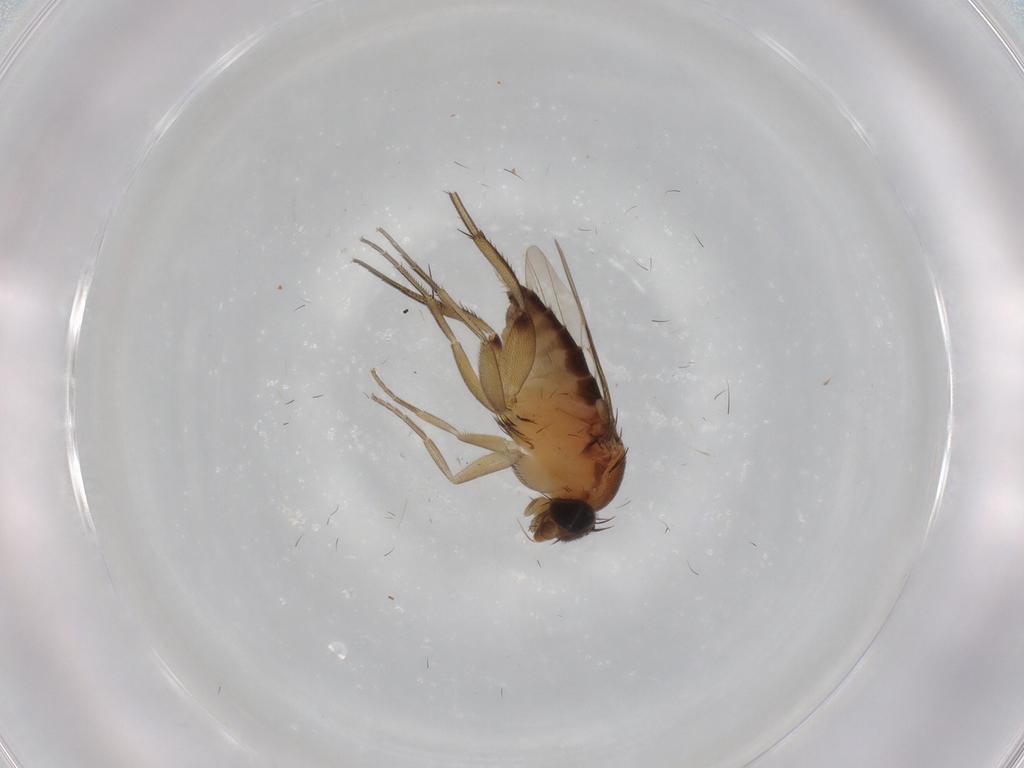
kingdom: Animalia
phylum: Arthropoda
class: Insecta
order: Diptera
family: Phoridae
